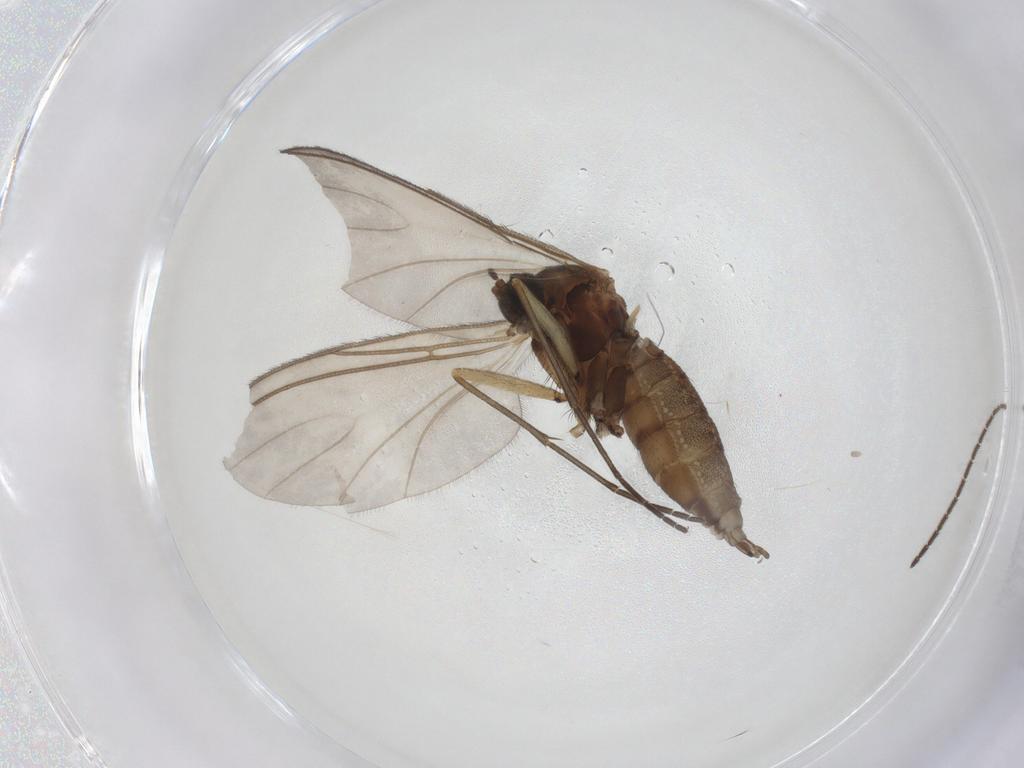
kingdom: Animalia
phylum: Arthropoda
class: Insecta
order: Diptera
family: Sciaridae
